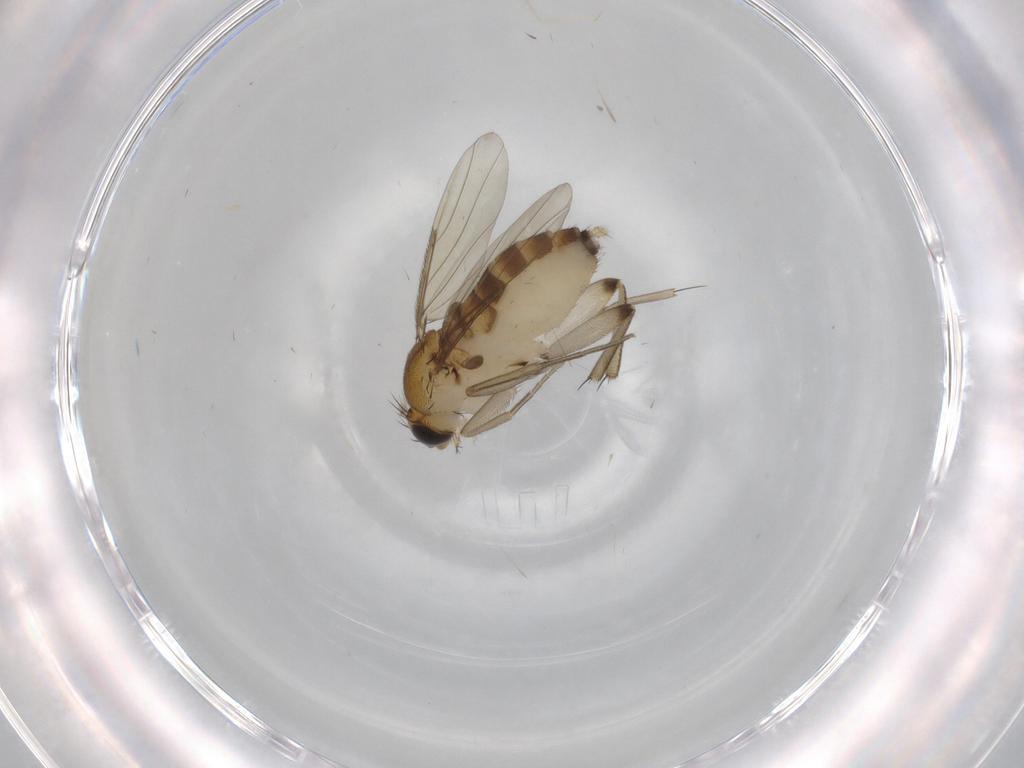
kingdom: Animalia
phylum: Arthropoda
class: Insecta
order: Diptera
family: Phoridae
